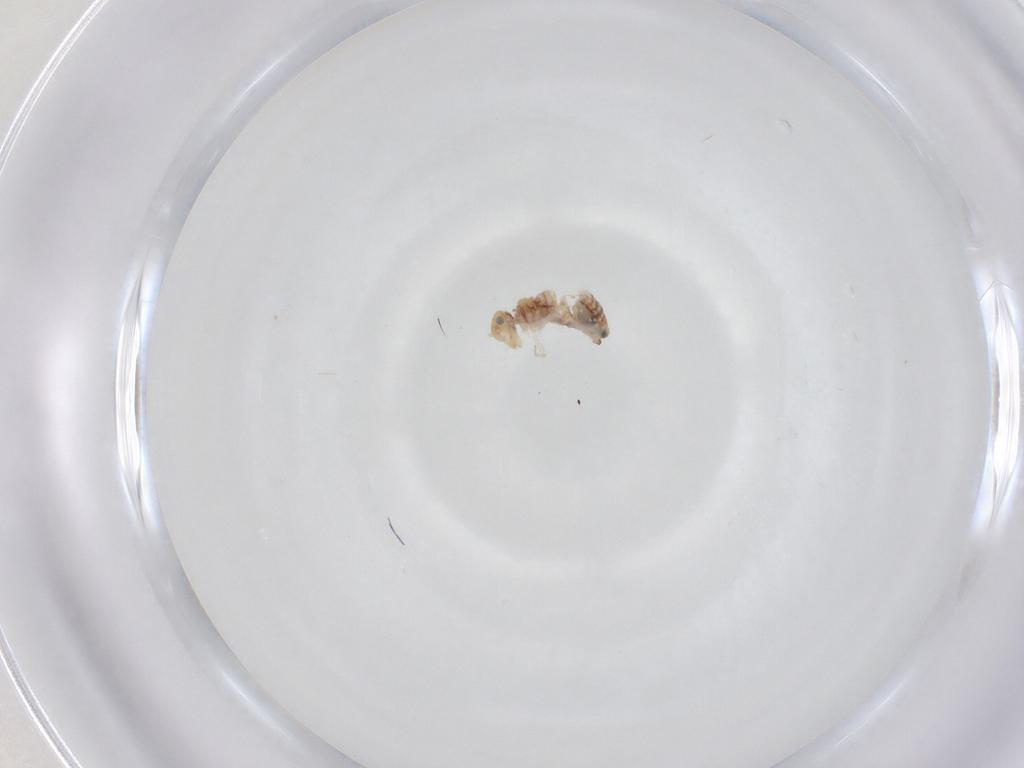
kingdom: Animalia
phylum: Arthropoda
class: Insecta
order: Psocodea
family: Lachesillidae
